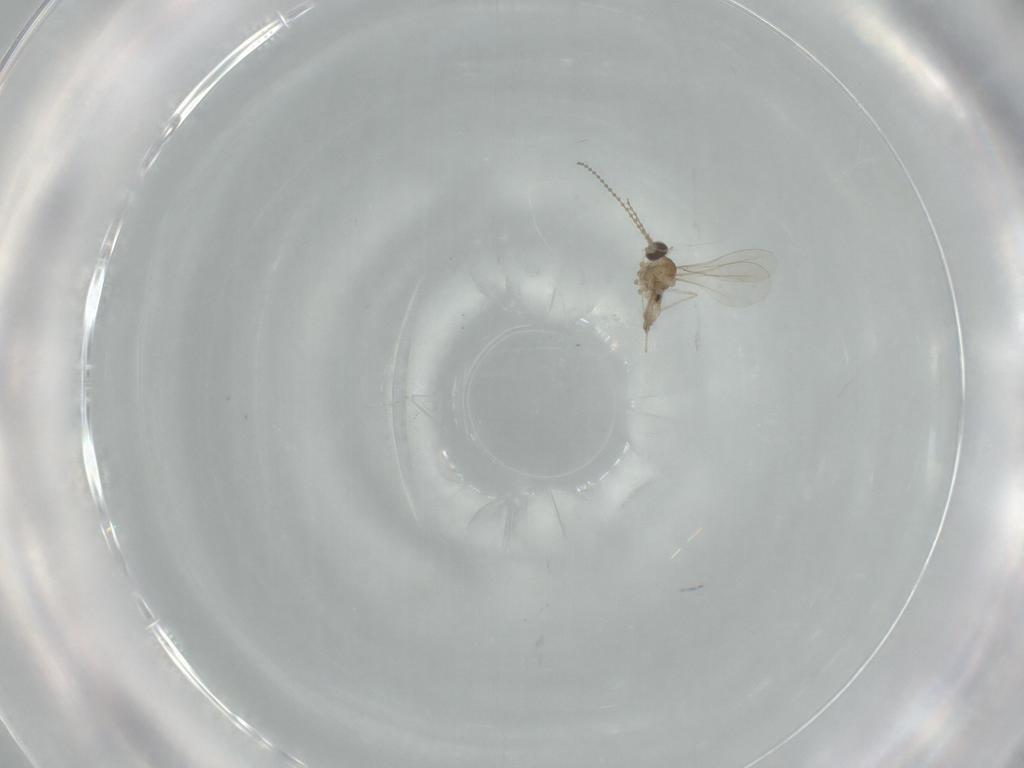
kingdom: Animalia
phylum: Arthropoda
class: Insecta
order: Diptera
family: Cecidomyiidae
